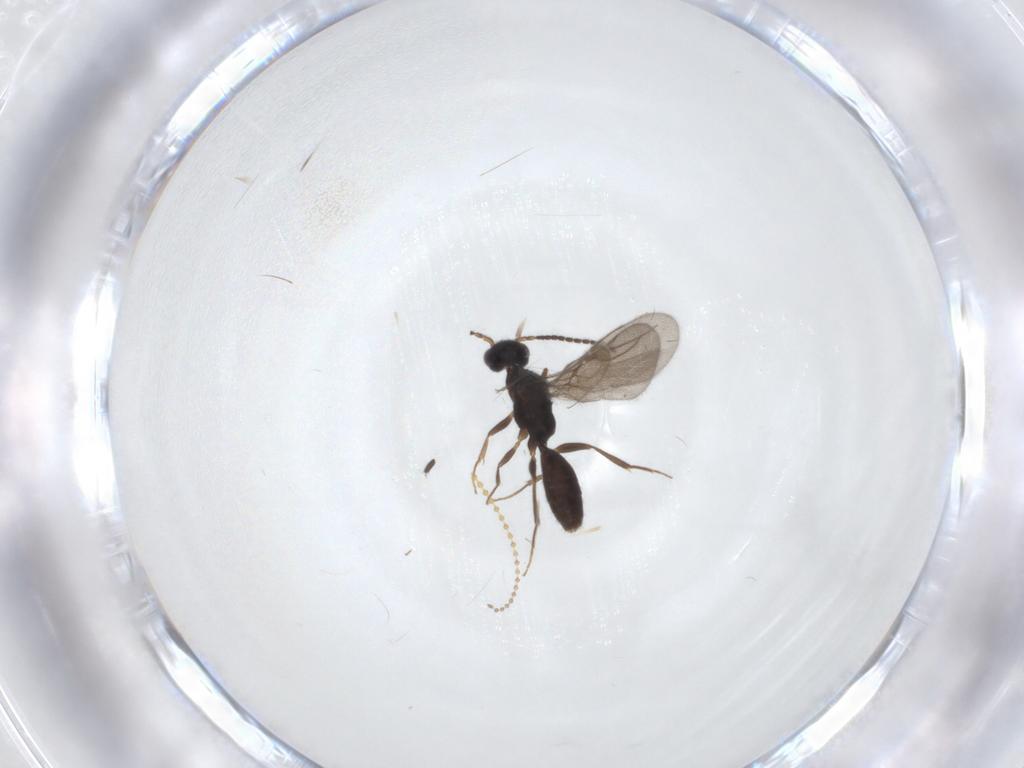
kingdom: Animalia
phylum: Arthropoda
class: Insecta
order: Hymenoptera
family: Bethylidae
